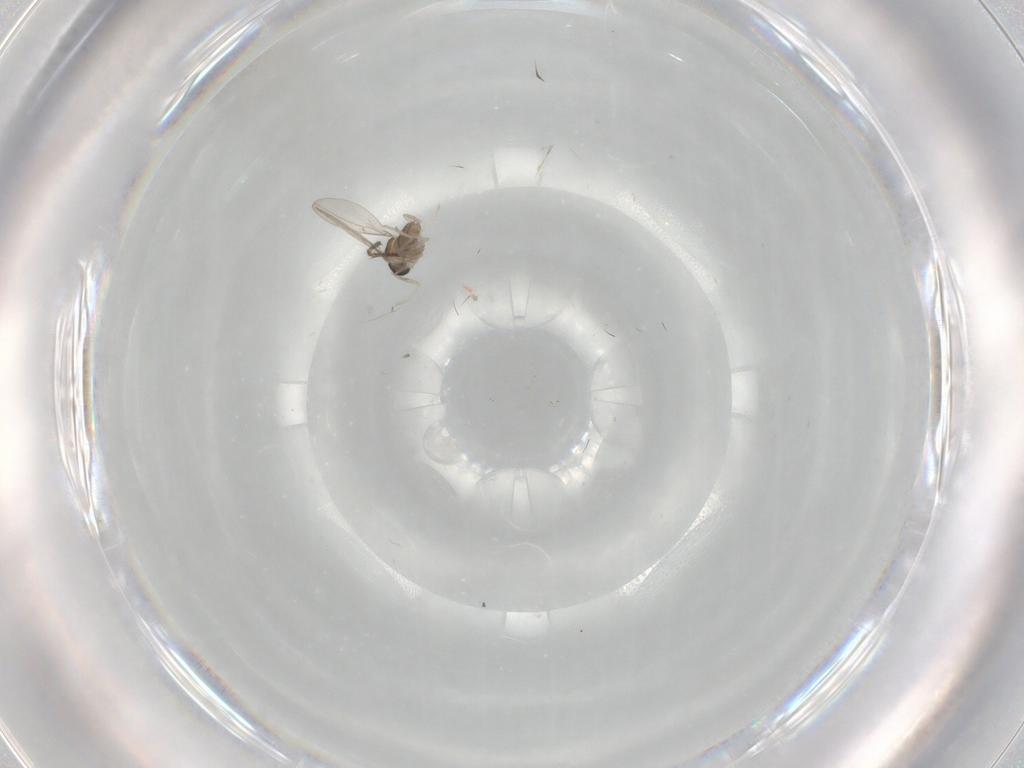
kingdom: Animalia
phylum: Arthropoda
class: Insecta
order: Diptera
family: Cecidomyiidae
